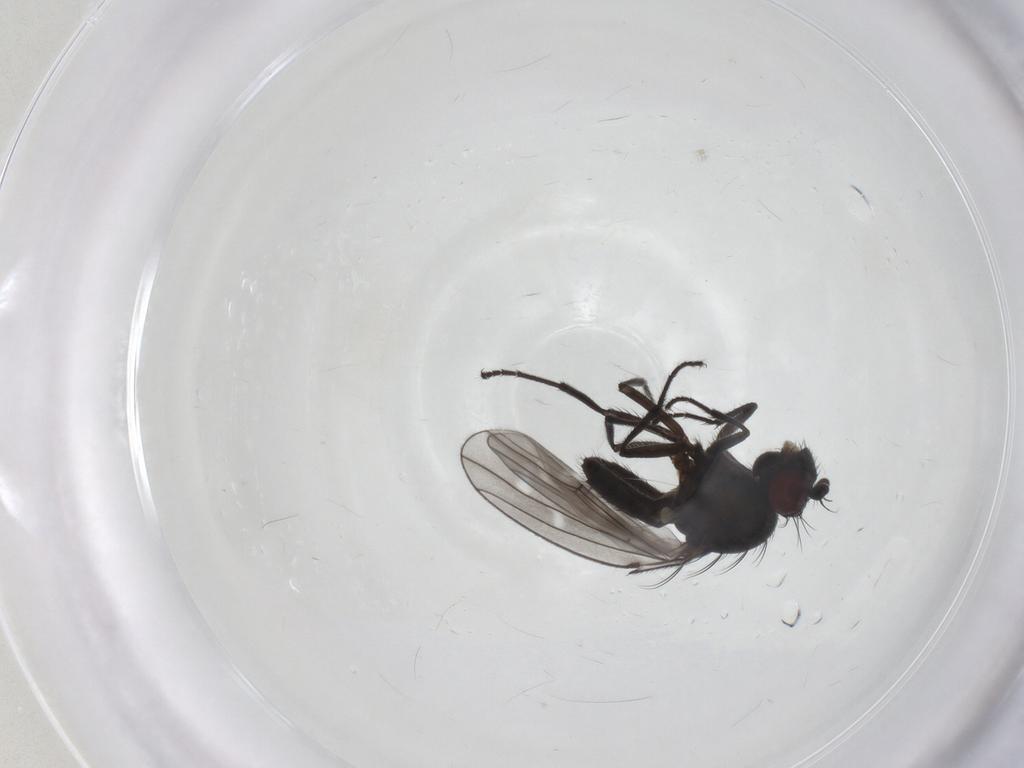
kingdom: Animalia
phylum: Arthropoda
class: Insecta
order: Diptera
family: Ephydridae
